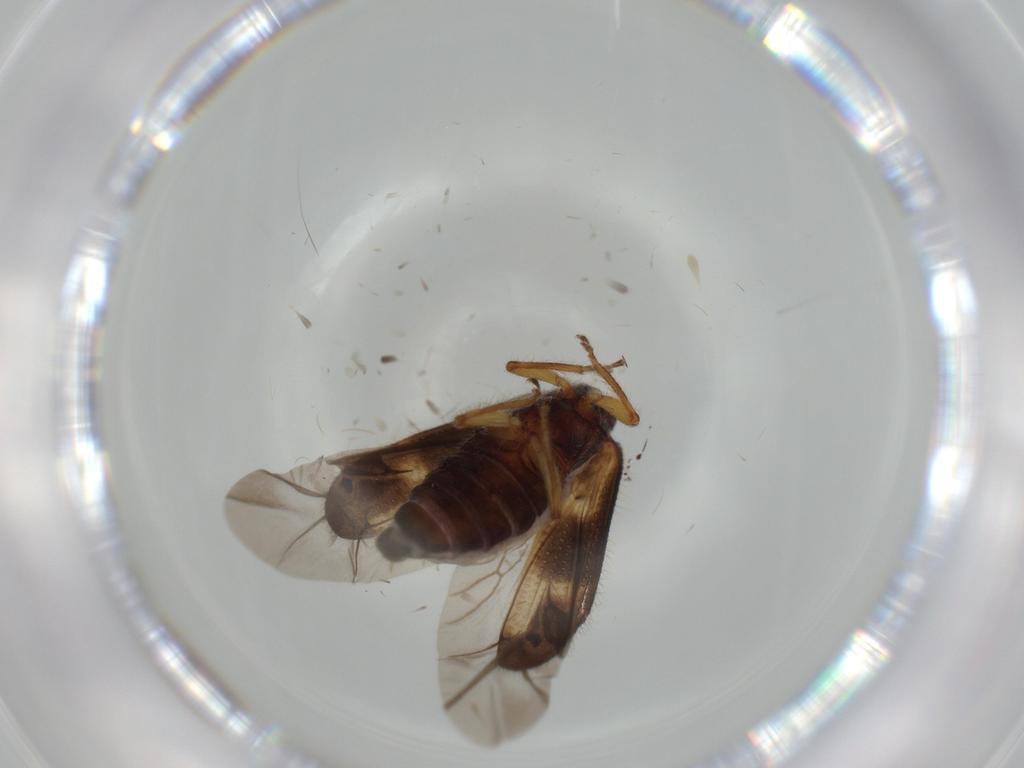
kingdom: Animalia
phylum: Arthropoda
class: Insecta
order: Coleoptera
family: Cleridae
